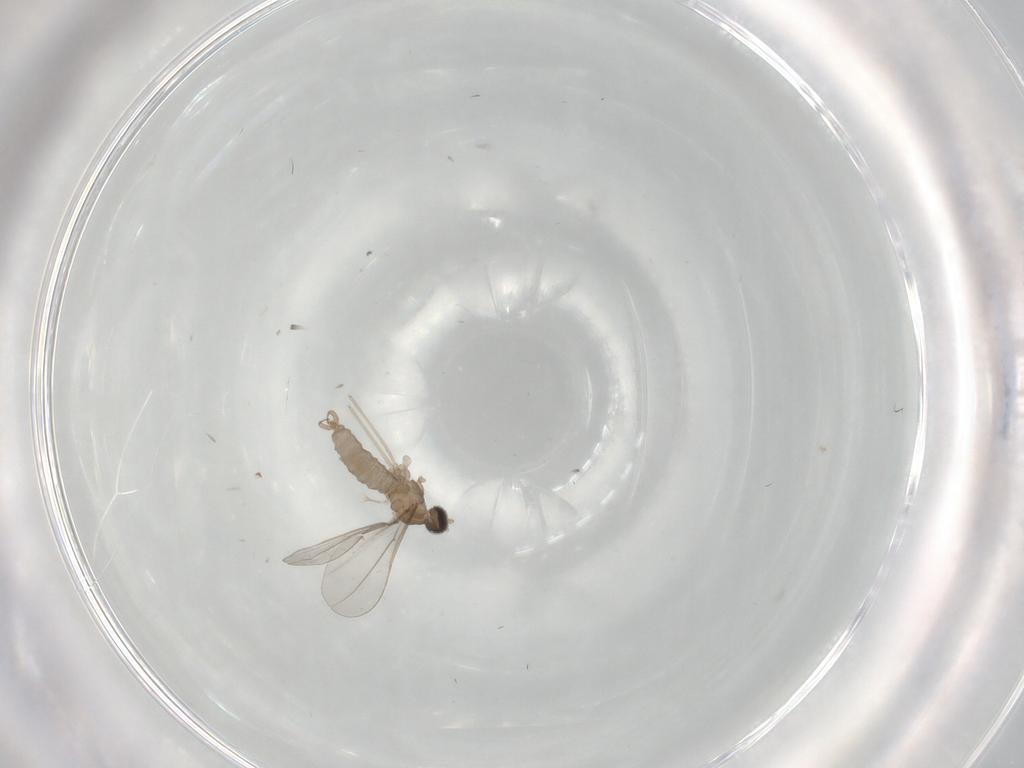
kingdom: Animalia
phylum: Arthropoda
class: Insecta
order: Diptera
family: Cecidomyiidae
